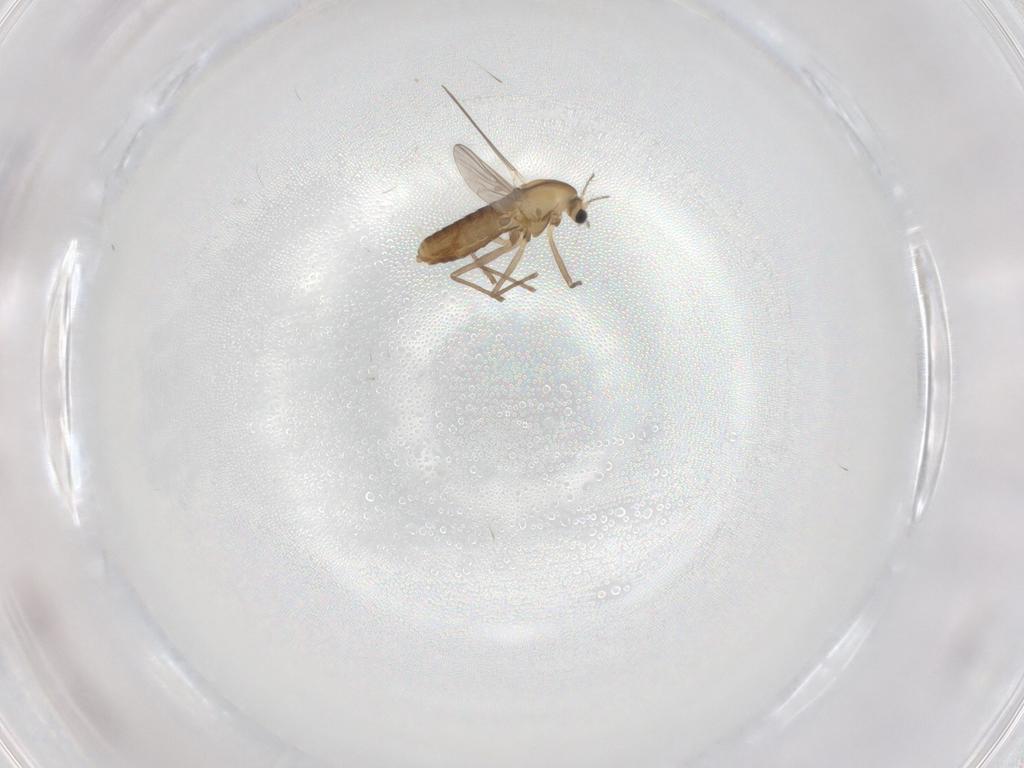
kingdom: Animalia
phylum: Arthropoda
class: Insecta
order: Diptera
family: Chironomidae
